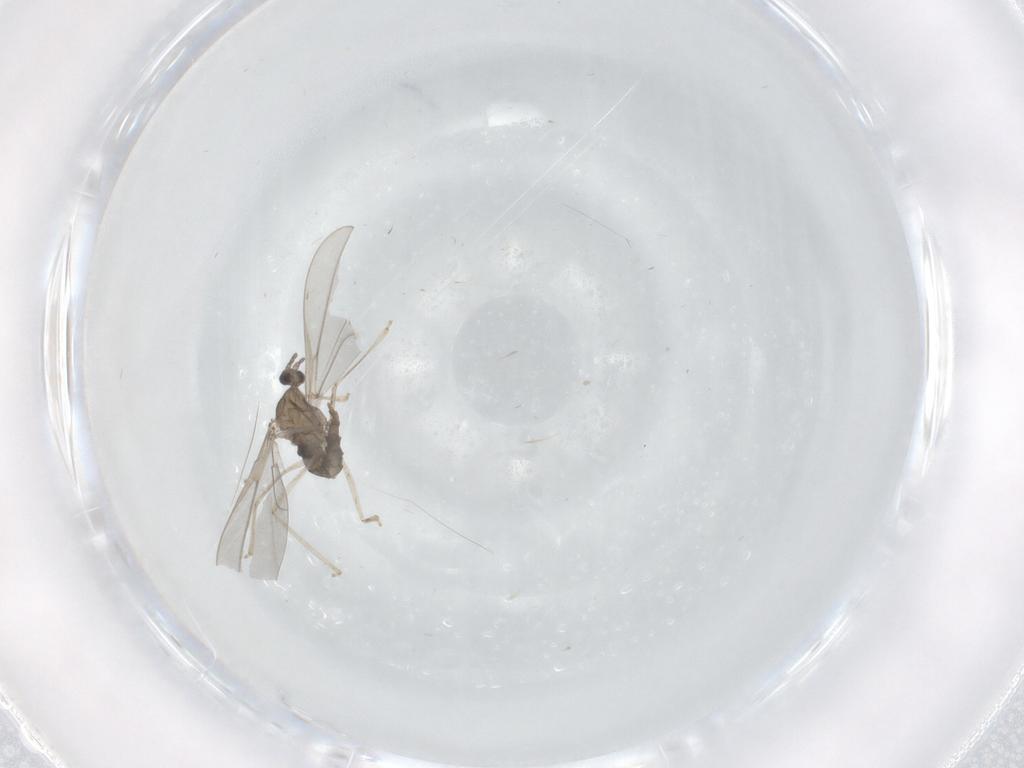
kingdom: Animalia
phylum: Arthropoda
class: Insecta
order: Diptera
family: Cecidomyiidae
